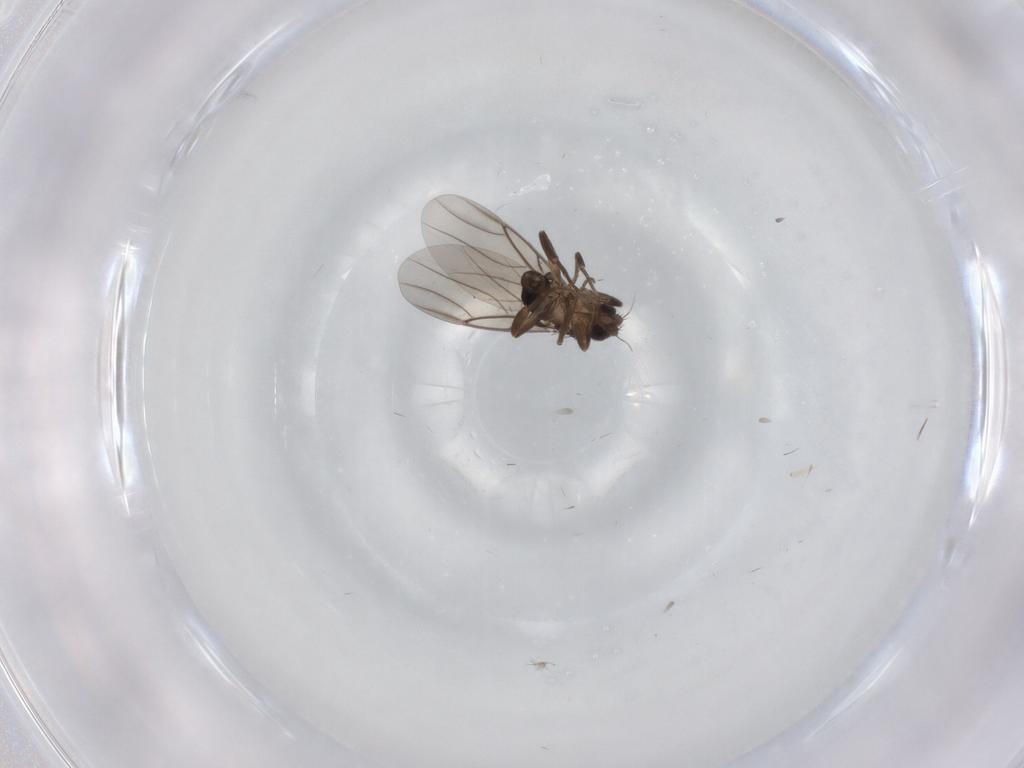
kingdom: Animalia
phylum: Arthropoda
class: Insecta
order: Diptera
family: Phoridae
